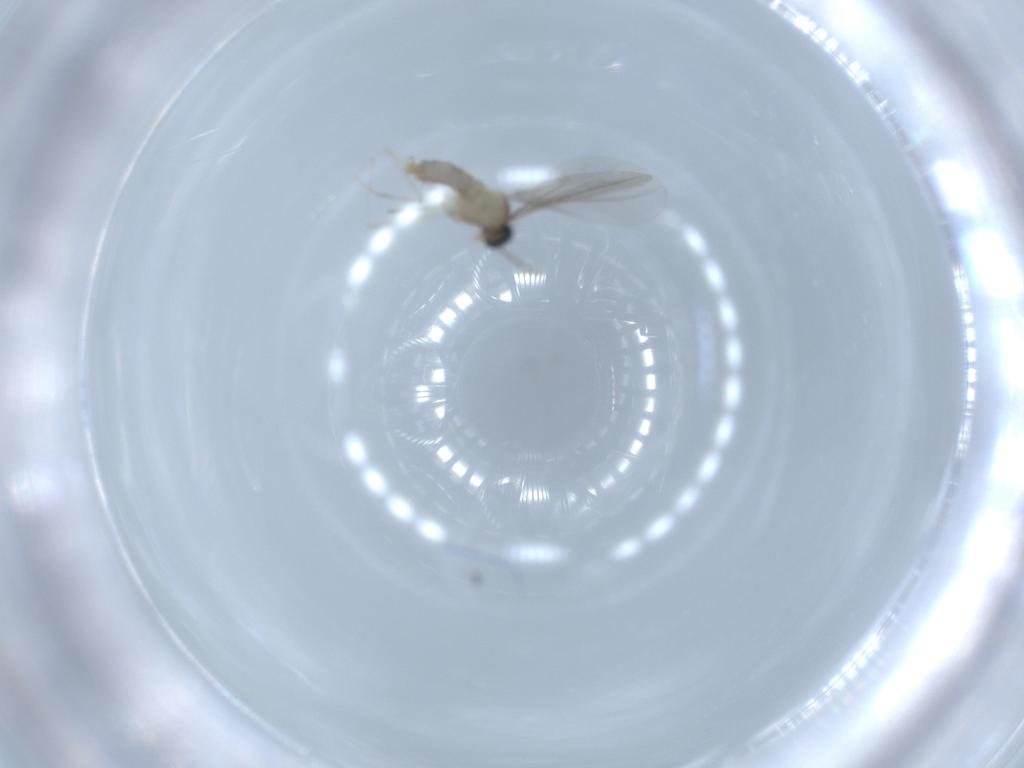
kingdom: Animalia
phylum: Arthropoda
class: Insecta
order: Diptera
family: Cecidomyiidae
